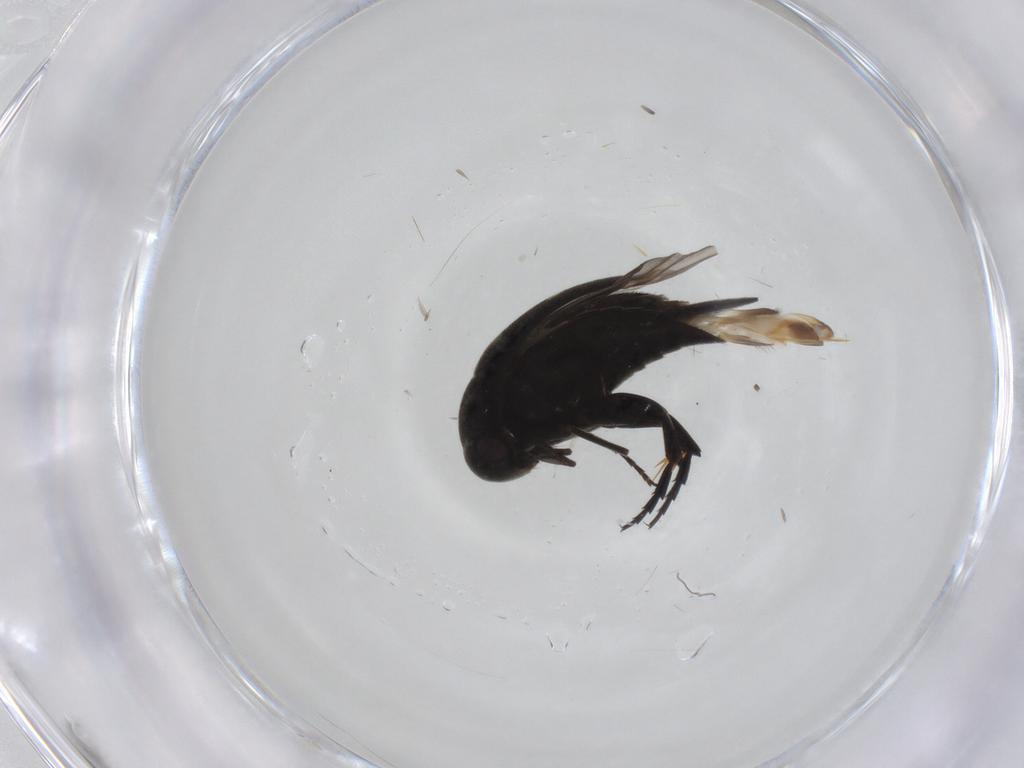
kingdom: Animalia
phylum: Arthropoda
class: Insecta
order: Coleoptera
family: Mordellidae
